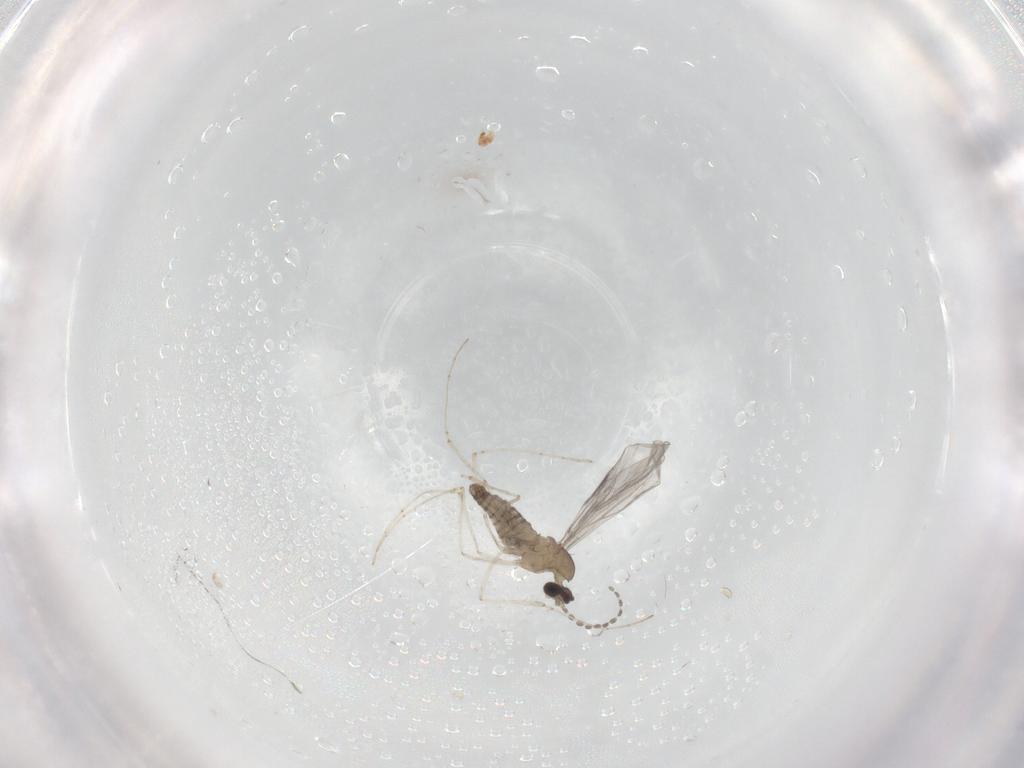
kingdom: Animalia
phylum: Arthropoda
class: Insecta
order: Diptera
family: Cecidomyiidae
